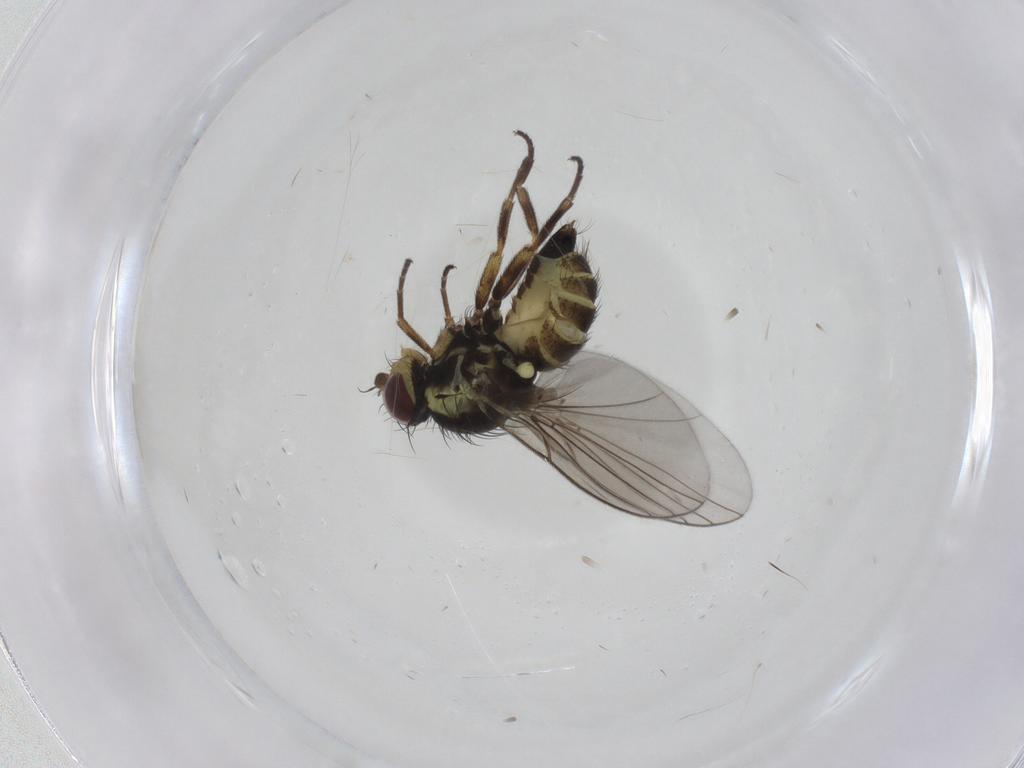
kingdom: Animalia
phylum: Arthropoda
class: Insecta
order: Diptera
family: Agromyzidae
